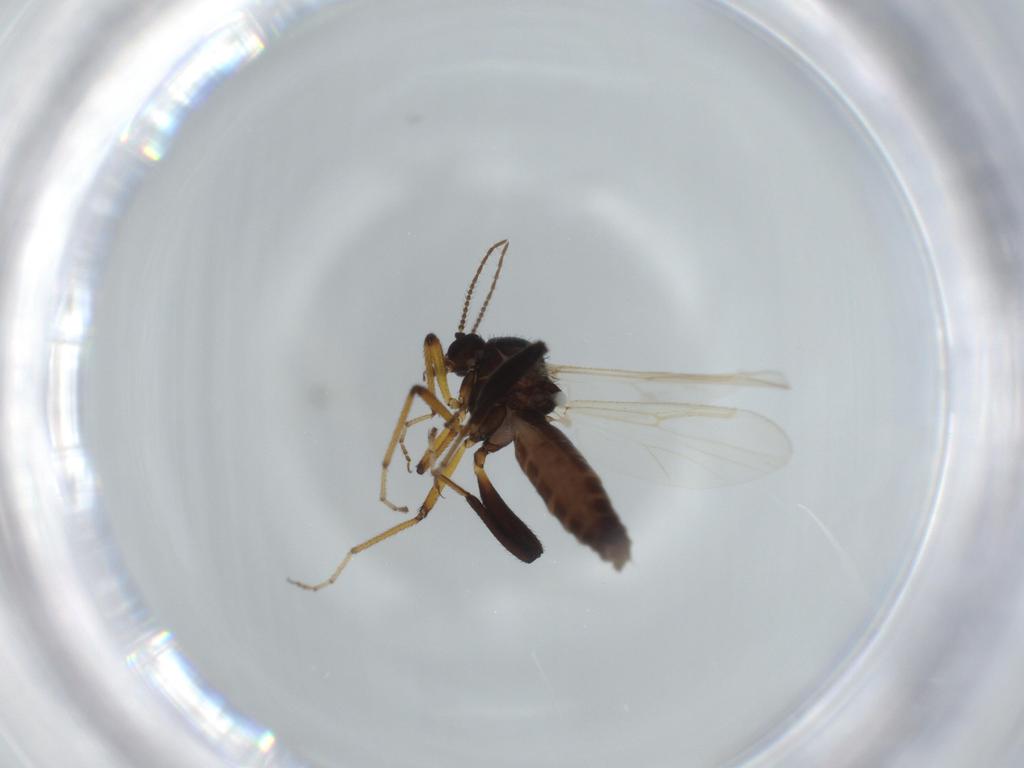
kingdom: Animalia
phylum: Arthropoda
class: Insecta
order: Diptera
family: Ceratopogonidae
